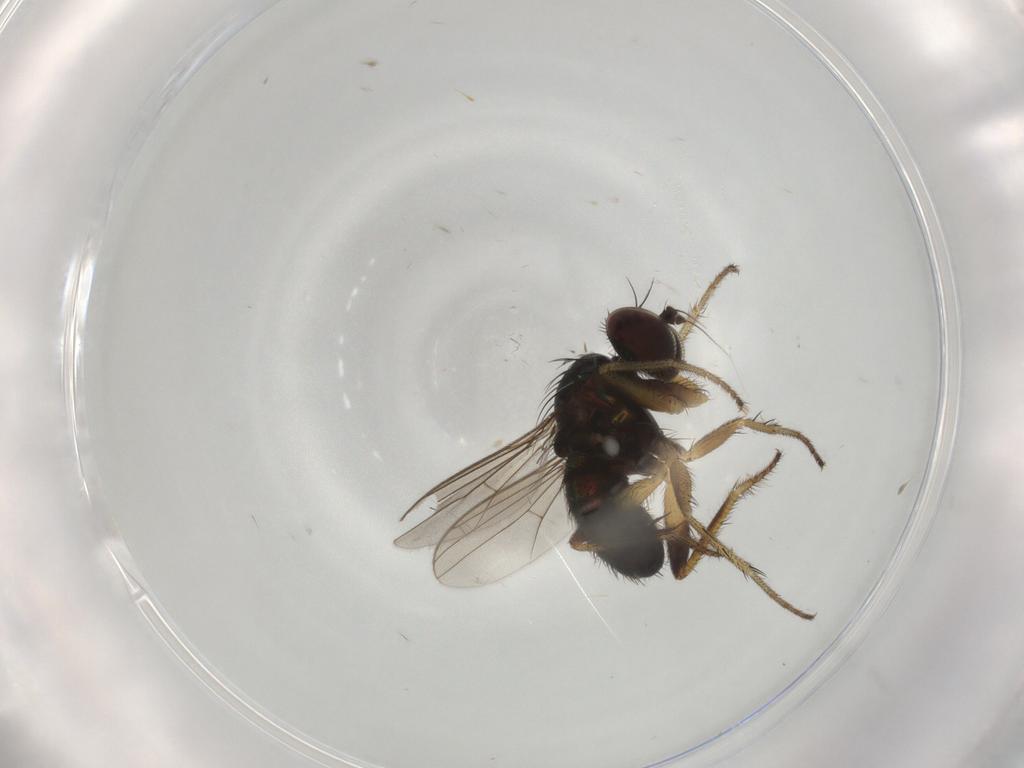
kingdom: Animalia
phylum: Arthropoda
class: Insecta
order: Diptera
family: Dolichopodidae
